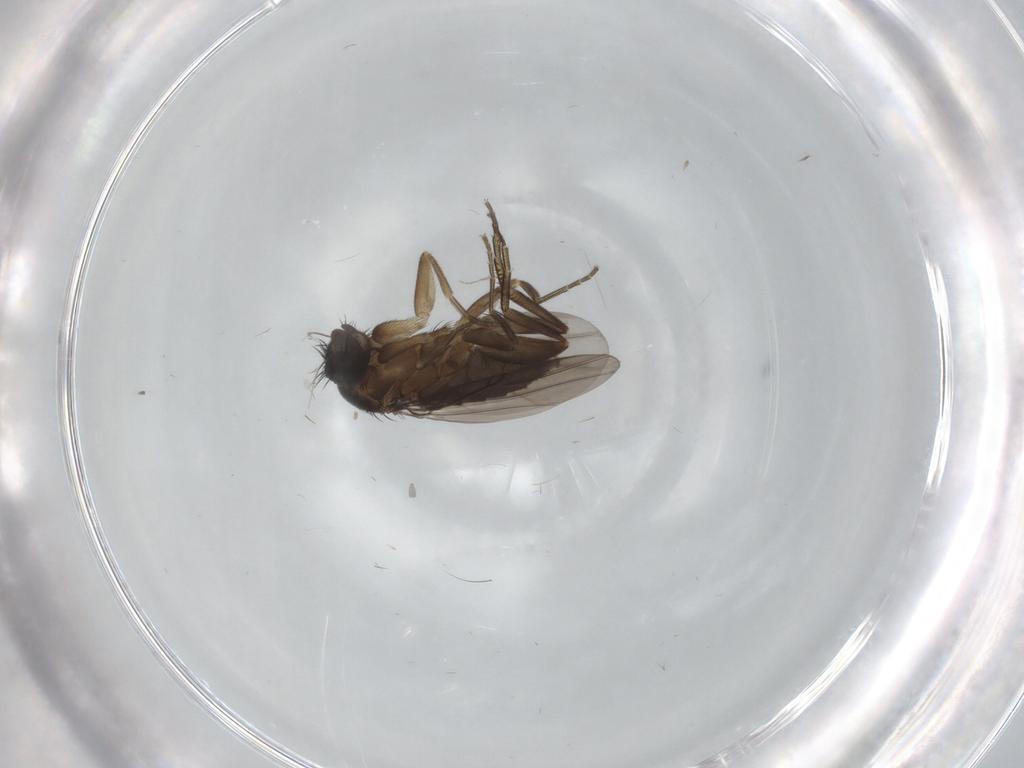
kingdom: Animalia
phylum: Arthropoda
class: Insecta
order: Diptera
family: Phoridae
